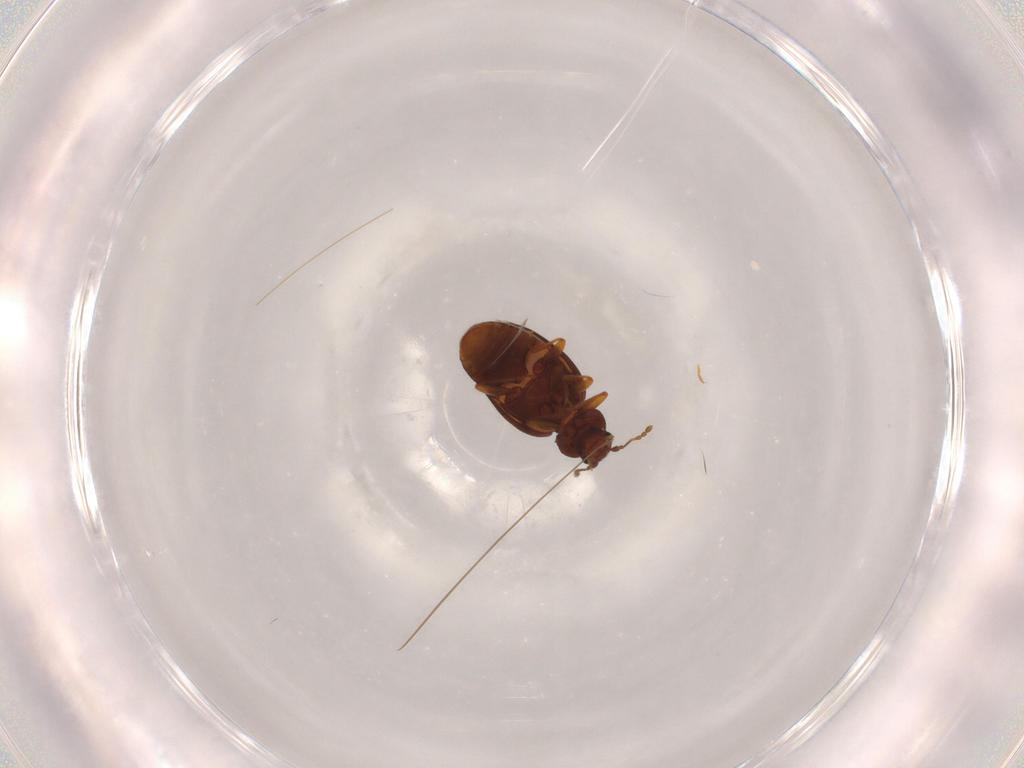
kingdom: Animalia
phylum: Arthropoda
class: Insecta
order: Coleoptera
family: Latridiidae
